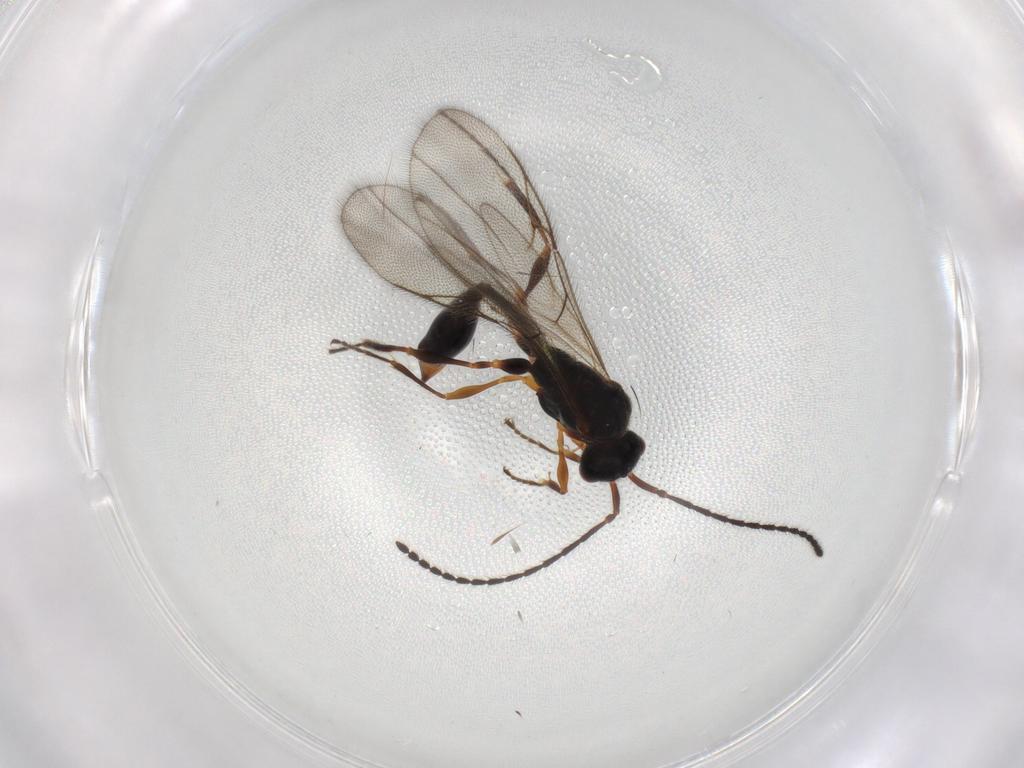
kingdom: Animalia
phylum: Arthropoda
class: Insecta
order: Hymenoptera
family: Diapriidae
